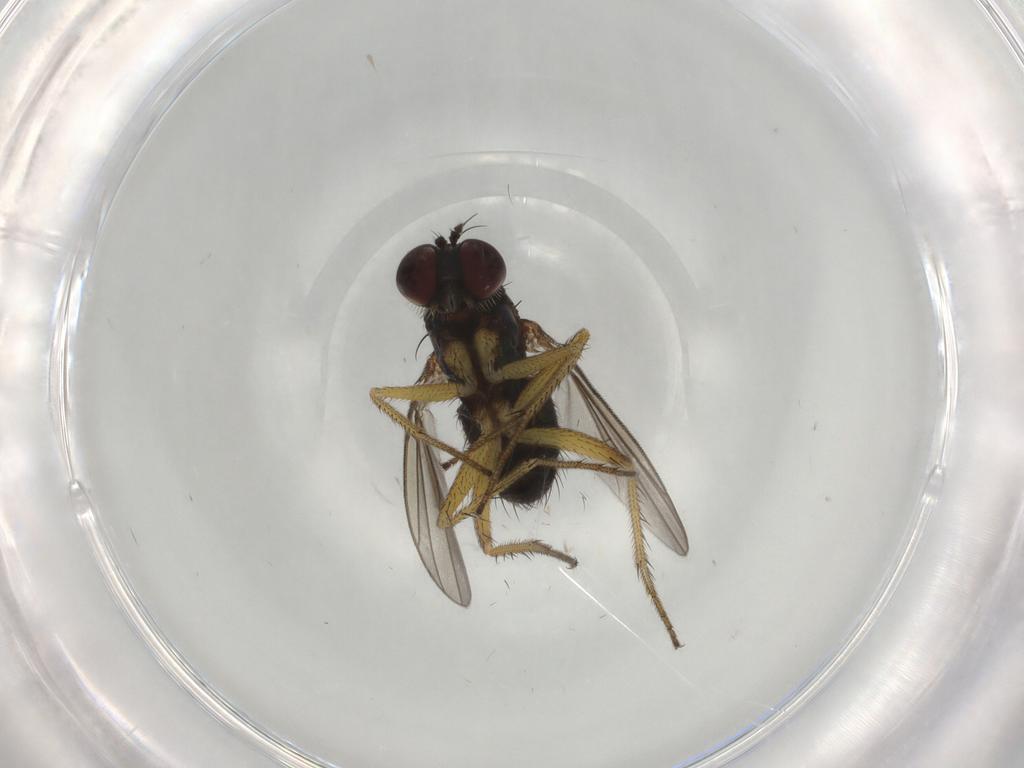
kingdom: Animalia
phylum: Arthropoda
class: Insecta
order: Diptera
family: Dolichopodidae
